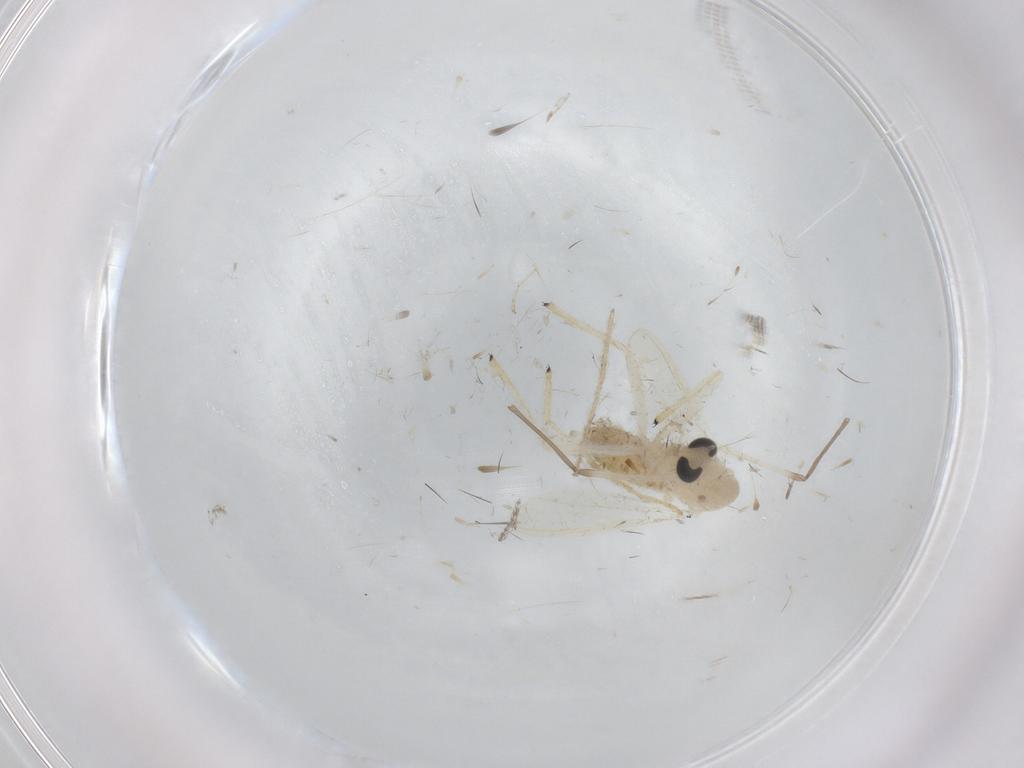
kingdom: Animalia
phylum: Arthropoda
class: Insecta
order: Diptera
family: Chironomidae
